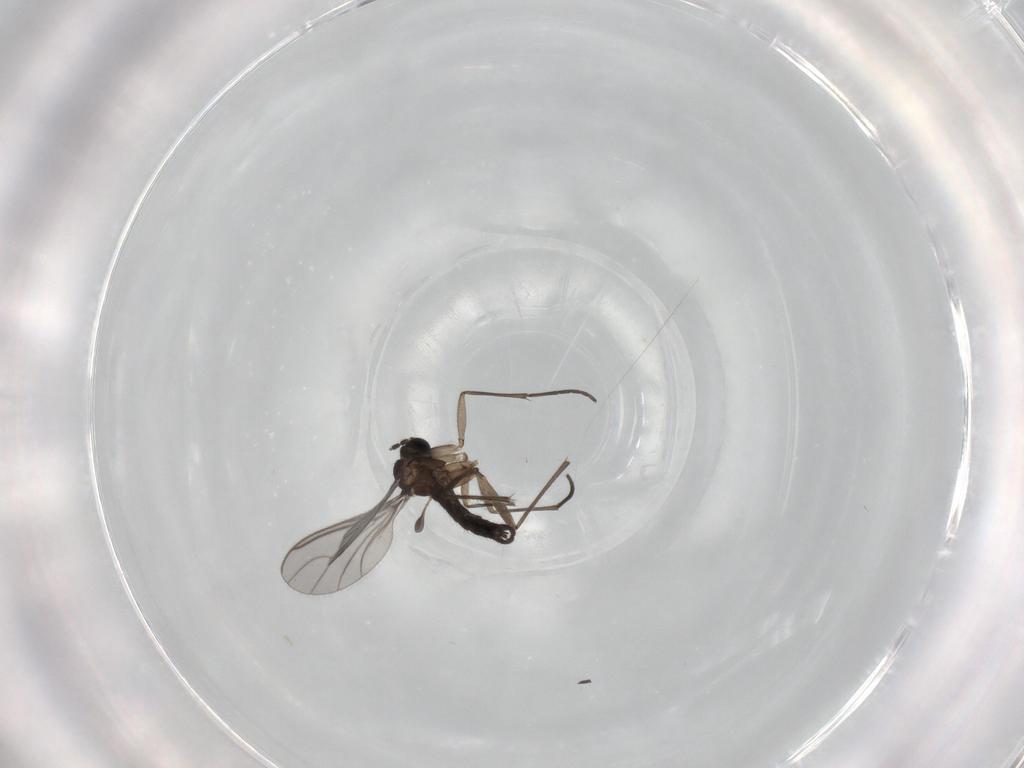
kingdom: Animalia
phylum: Arthropoda
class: Insecta
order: Diptera
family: Sciaridae
